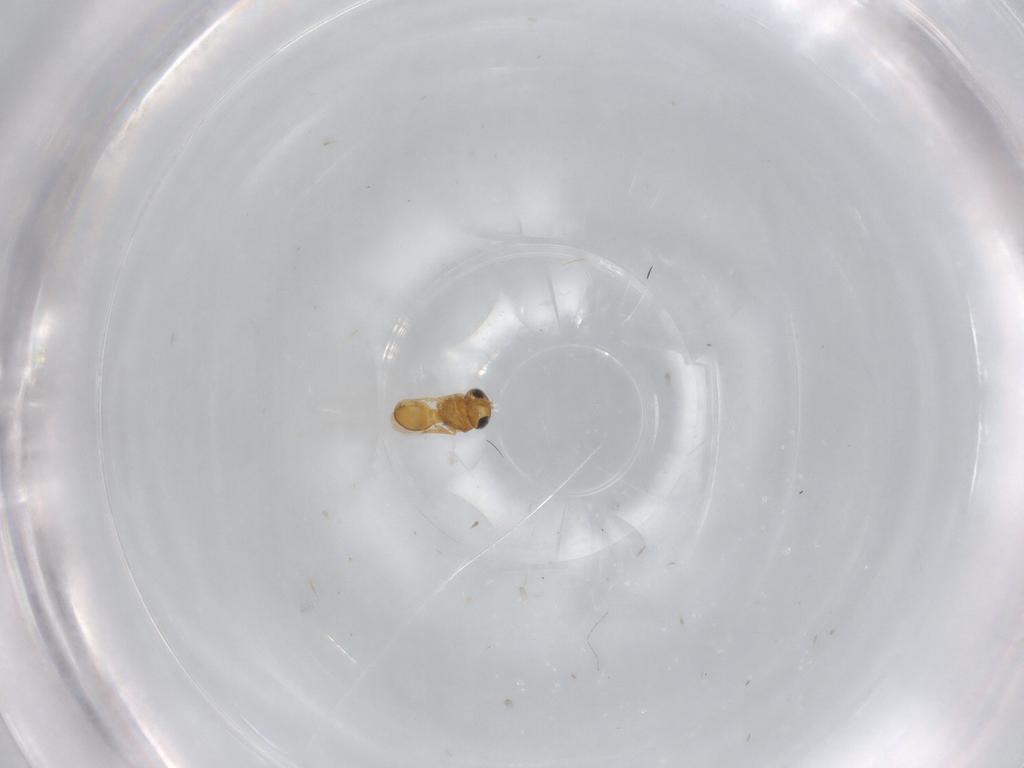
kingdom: Animalia
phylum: Arthropoda
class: Insecta
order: Hymenoptera
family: Scelionidae
